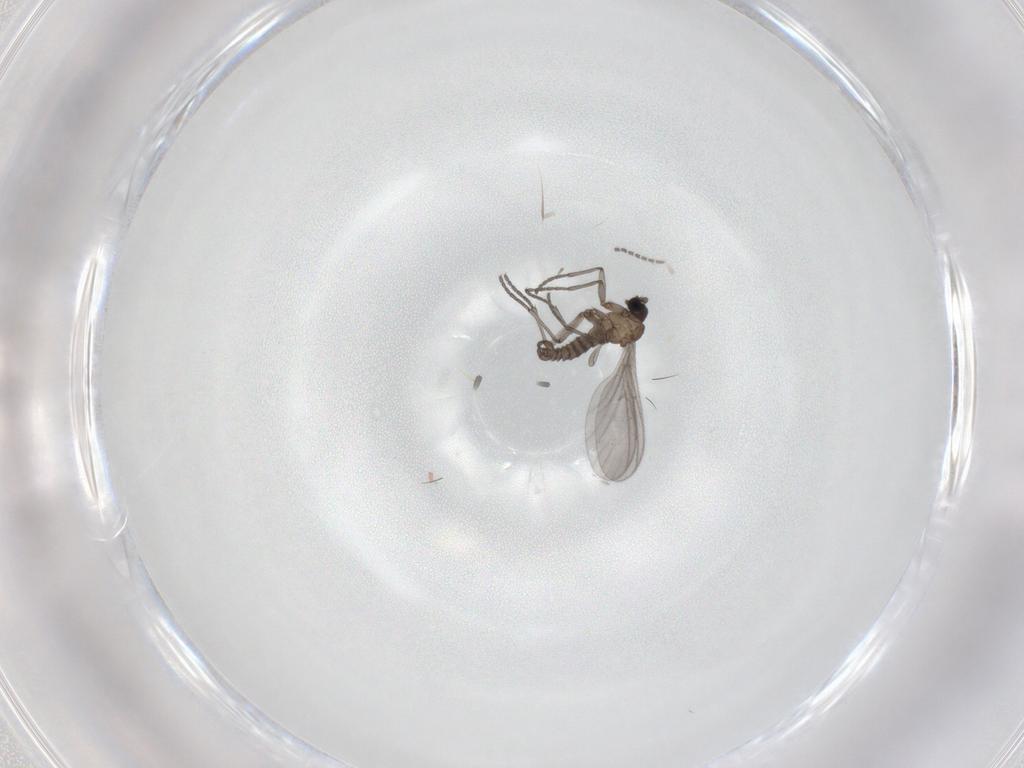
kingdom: Animalia
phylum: Arthropoda
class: Insecta
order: Diptera
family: Sciaridae
